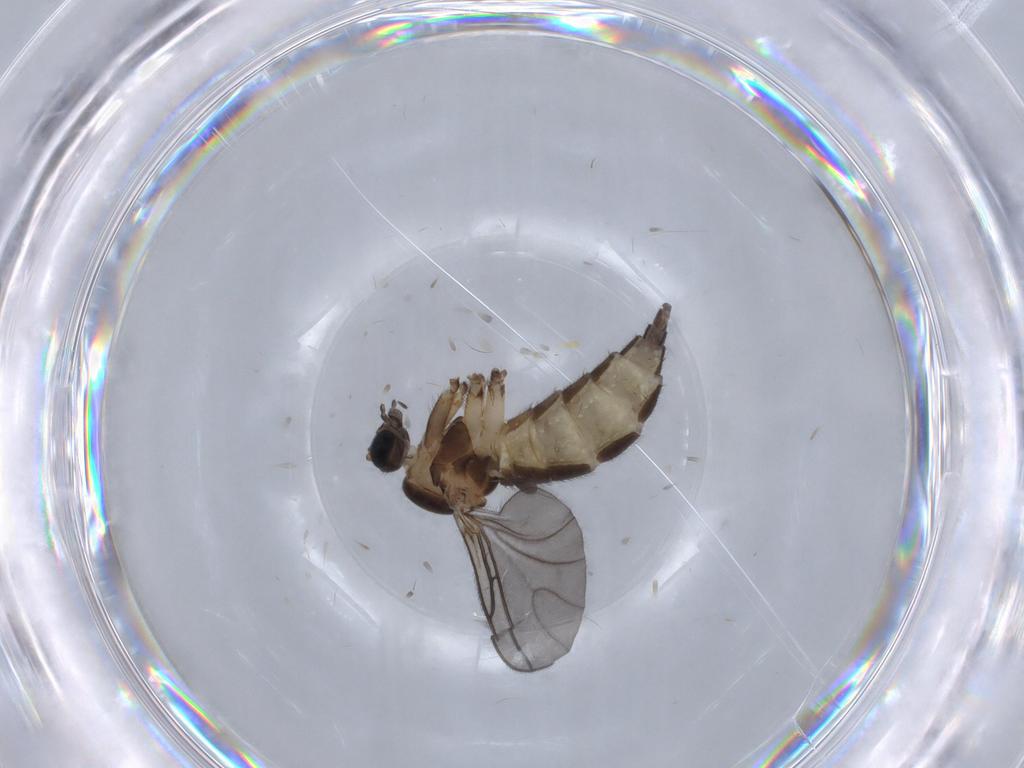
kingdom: Animalia
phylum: Arthropoda
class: Insecta
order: Diptera
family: Sciaridae
